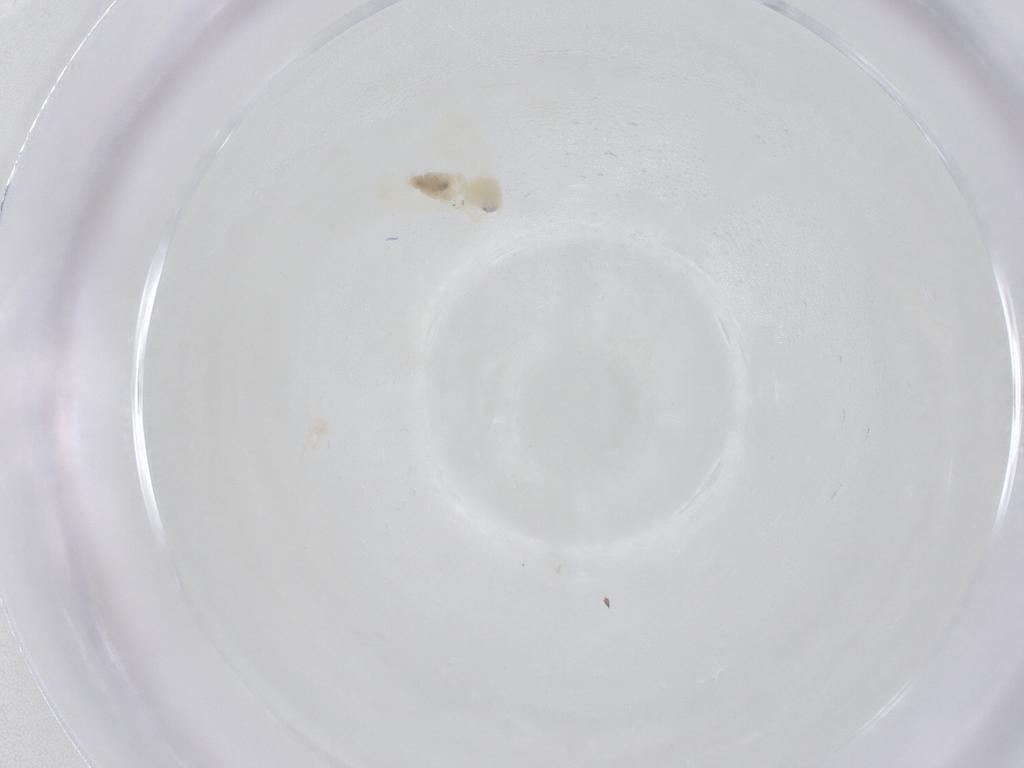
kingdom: Animalia
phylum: Arthropoda
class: Insecta
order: Hemiptera
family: Aleyrodidae
